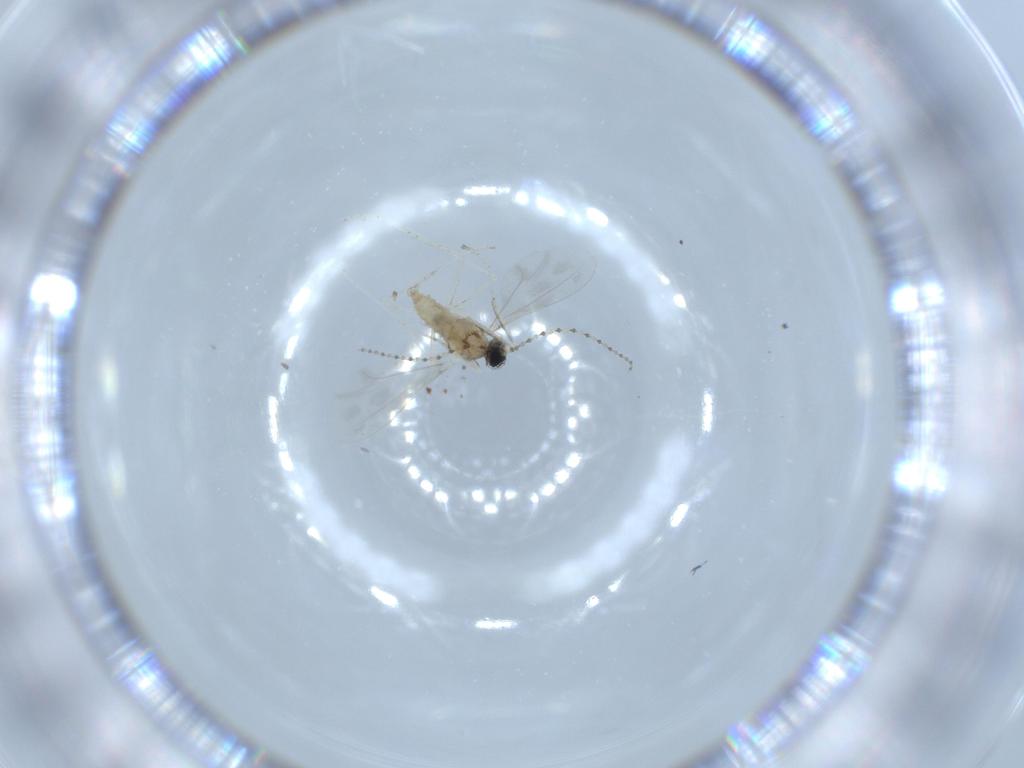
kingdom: Animalia
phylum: Arthropoda
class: Insecta
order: Diptera
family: Cecidomyiidae
